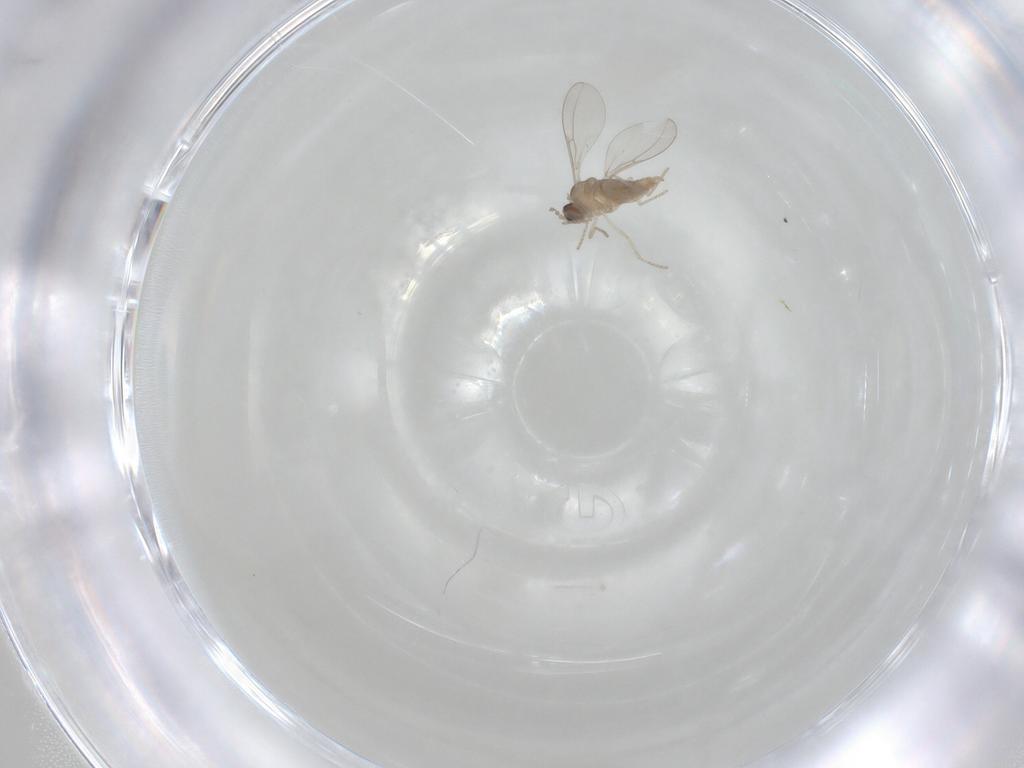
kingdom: Animalia
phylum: Arthropoda
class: Insecta
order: Diptera
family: Cecidomyiidae
